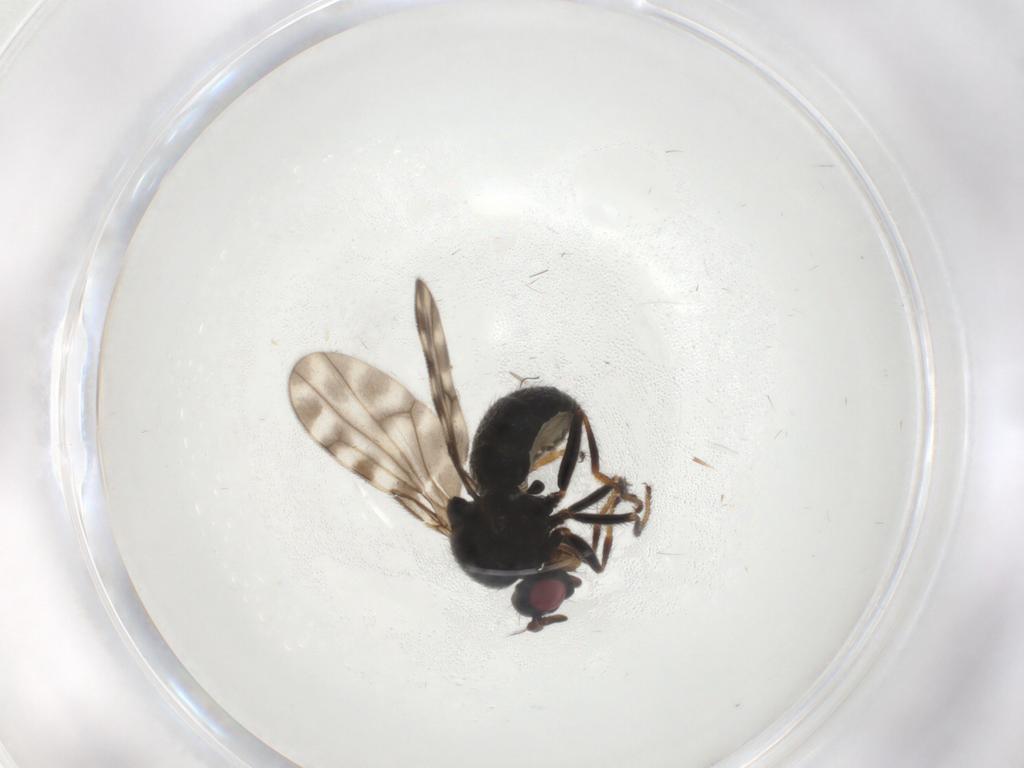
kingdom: Animalia
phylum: Arthropoda
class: Insecta
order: Diptera
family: Ephydridae
